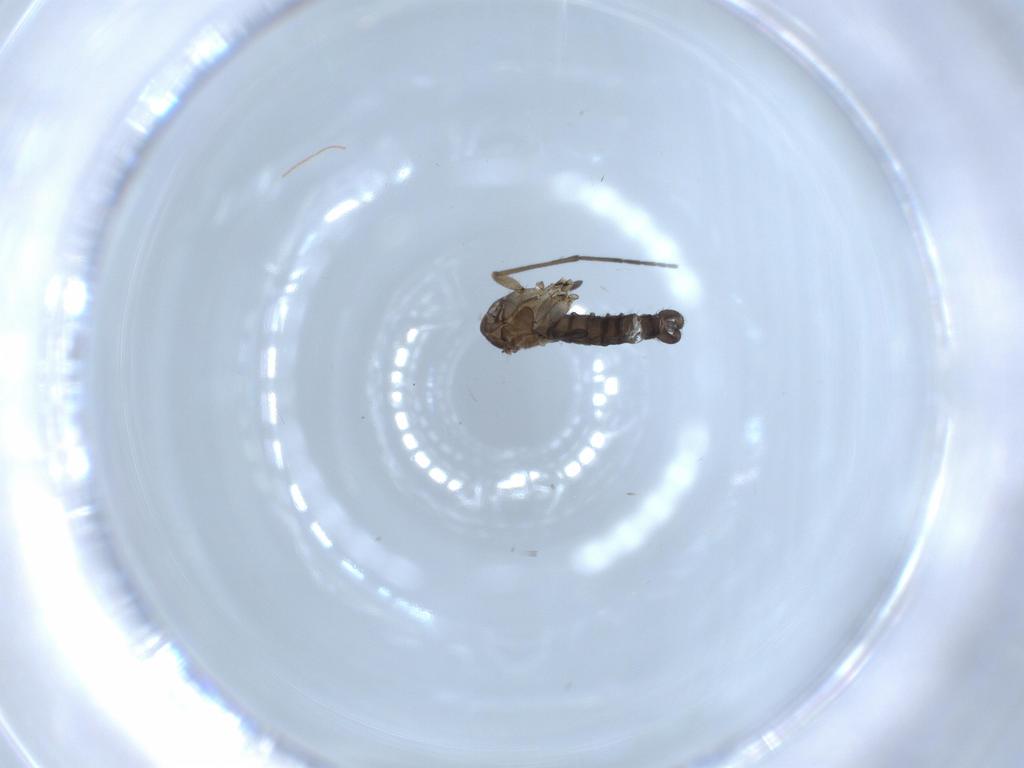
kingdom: Animalia
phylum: Arthropoda
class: Insecta
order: Diptera
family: Sciaridae
